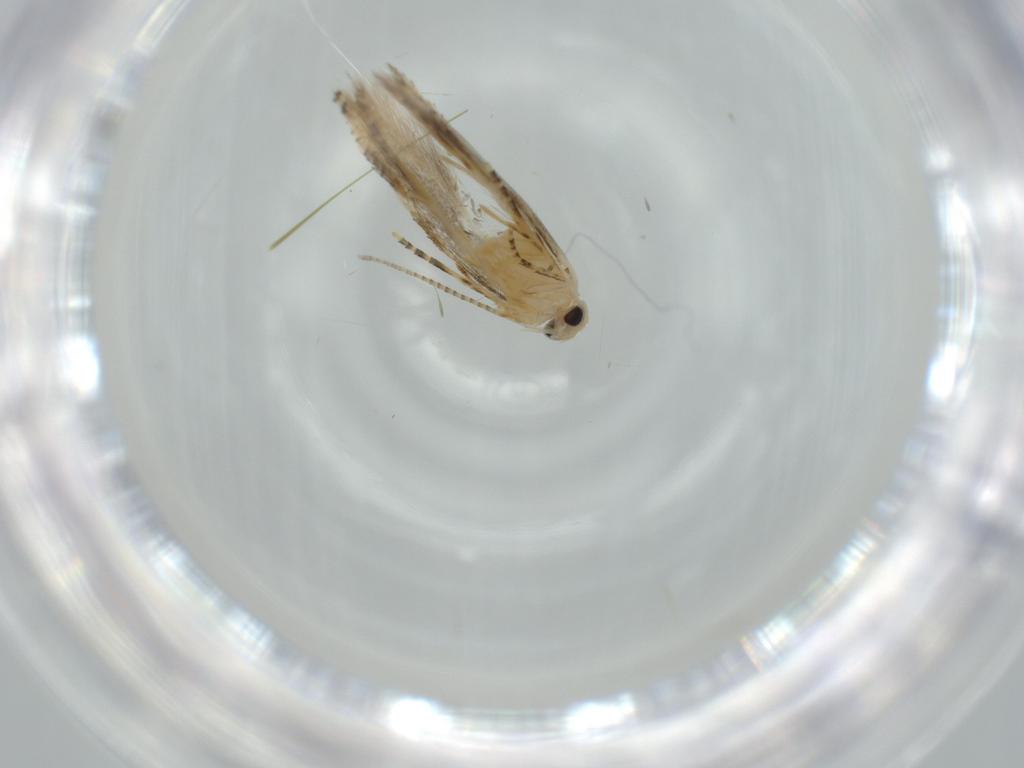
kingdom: Animalia
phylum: Arthropoda
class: Insecta
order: Lepidoptera
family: Bucculatricidae
